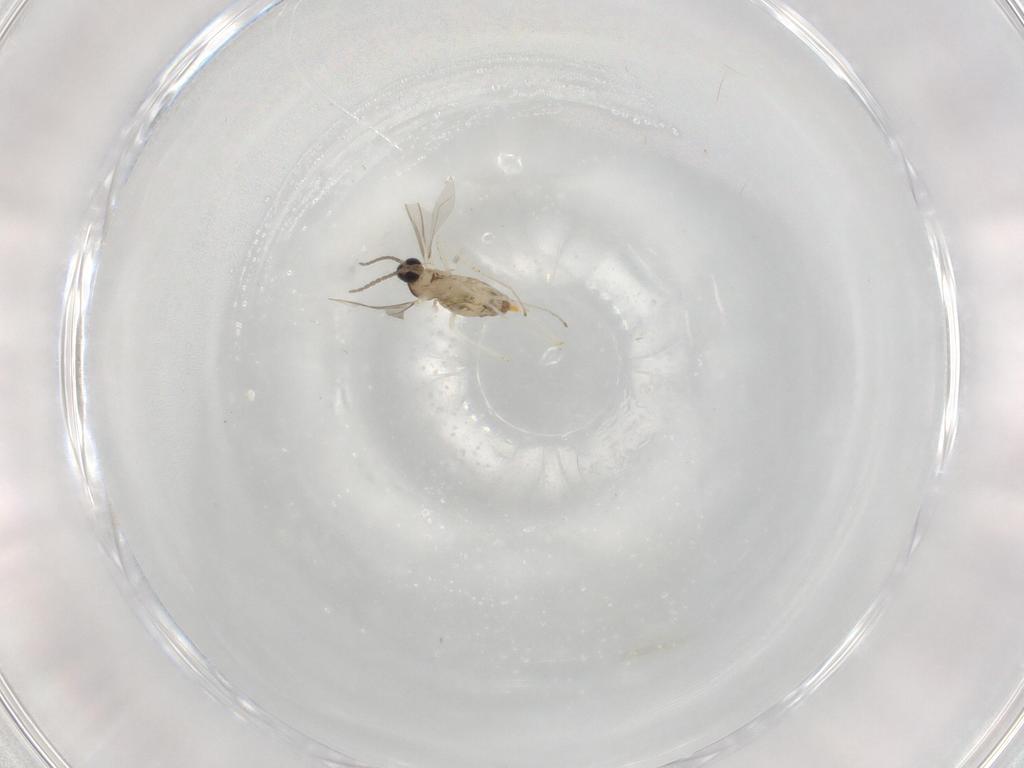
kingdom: Animalia
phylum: Arthropoda
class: Insecta
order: Diptera
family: Cecidomyiidae
